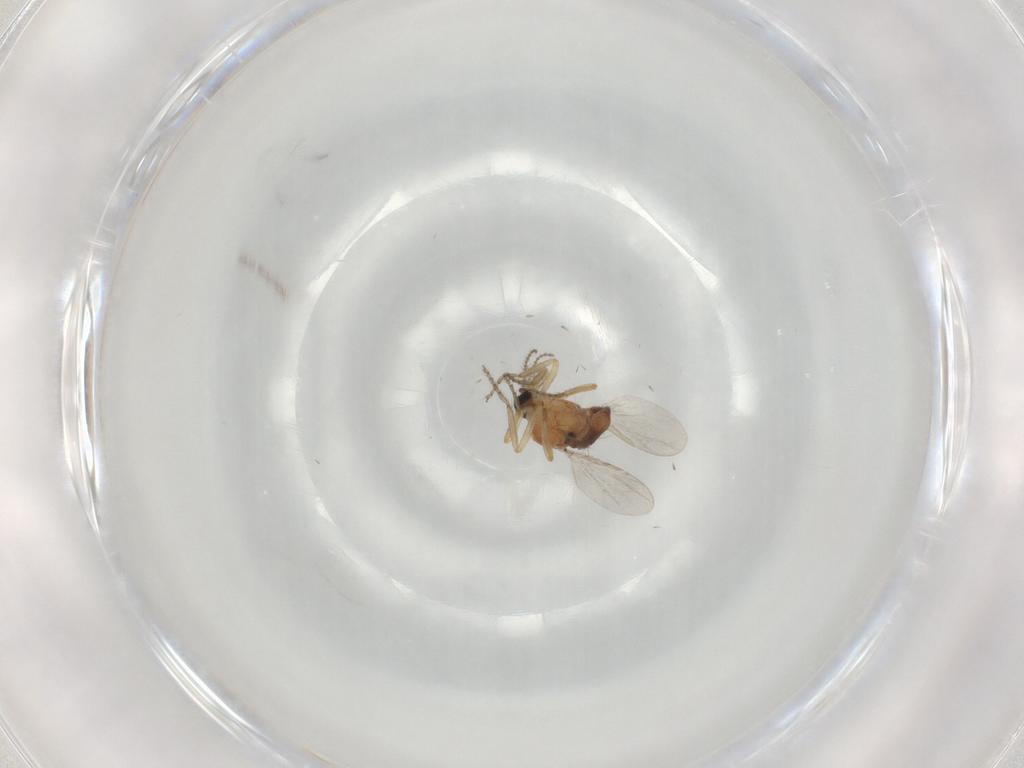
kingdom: Animalia
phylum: Arthropoda
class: Insecta
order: Diptera
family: Ceratopogonidae
